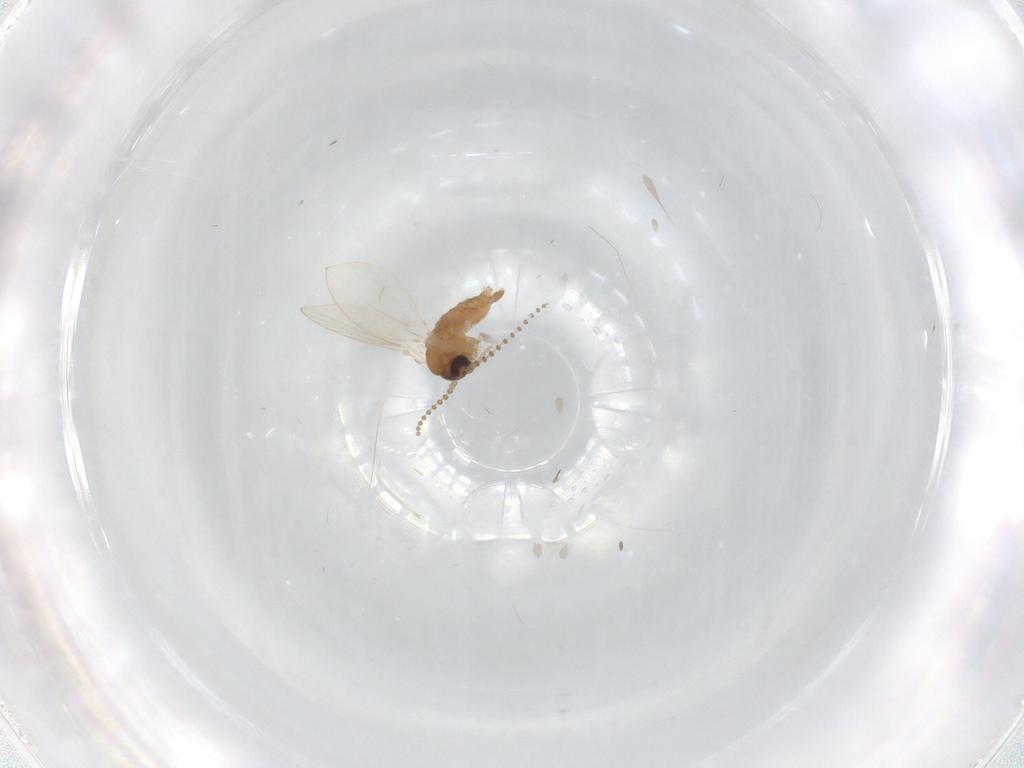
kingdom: Animalia
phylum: Arthropoda
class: Insecta
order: Diptera
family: Psychodidae
